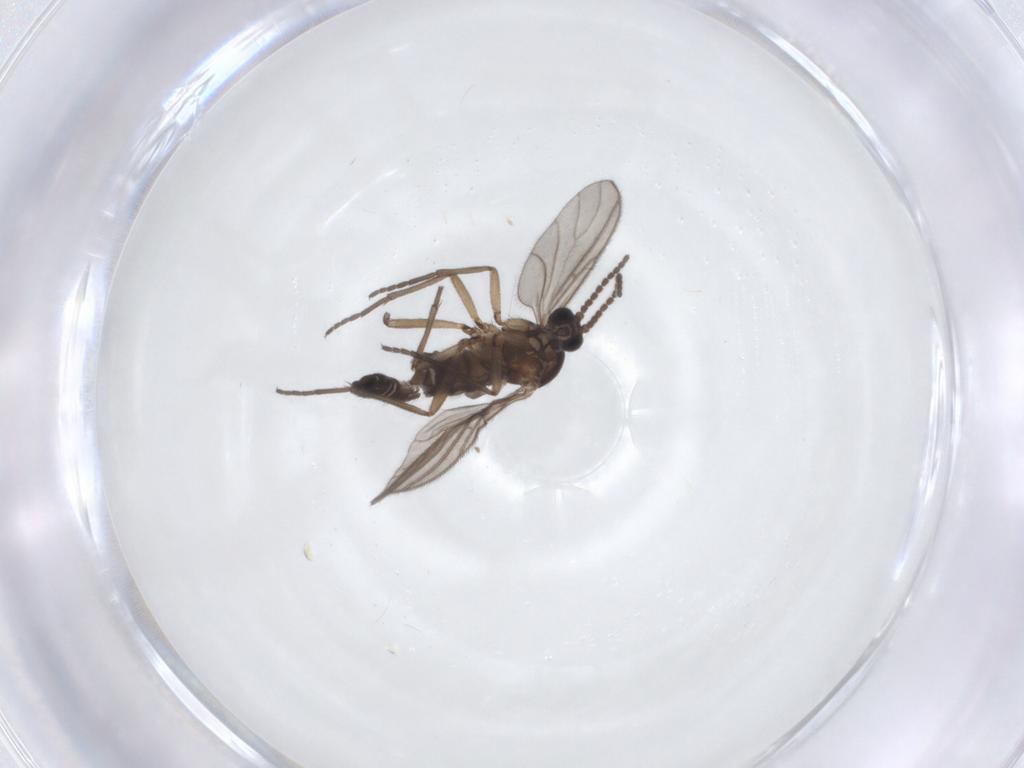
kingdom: Animalia
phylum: Arthropoda
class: Insecta
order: Diptera
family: Sciaridae
